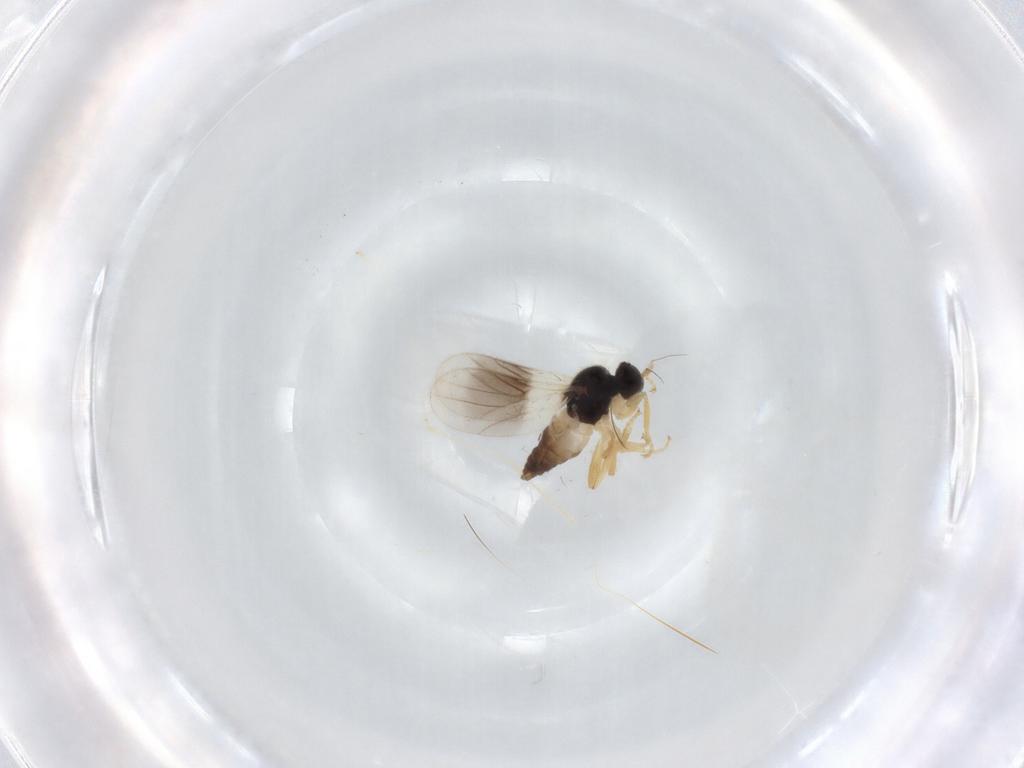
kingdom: Animalia
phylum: Arthropoda
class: Insecta
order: Diptera
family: Hybotidae
